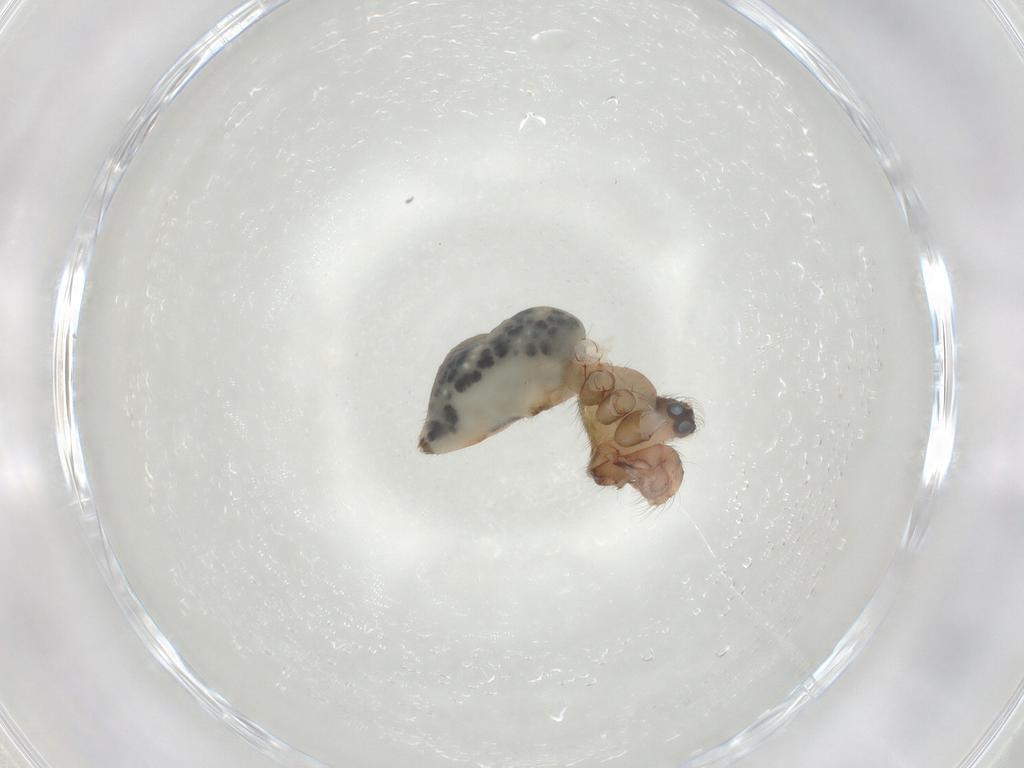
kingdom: Animalia
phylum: Arthropoda
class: Arachnida
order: Araneae
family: Pholcidae
